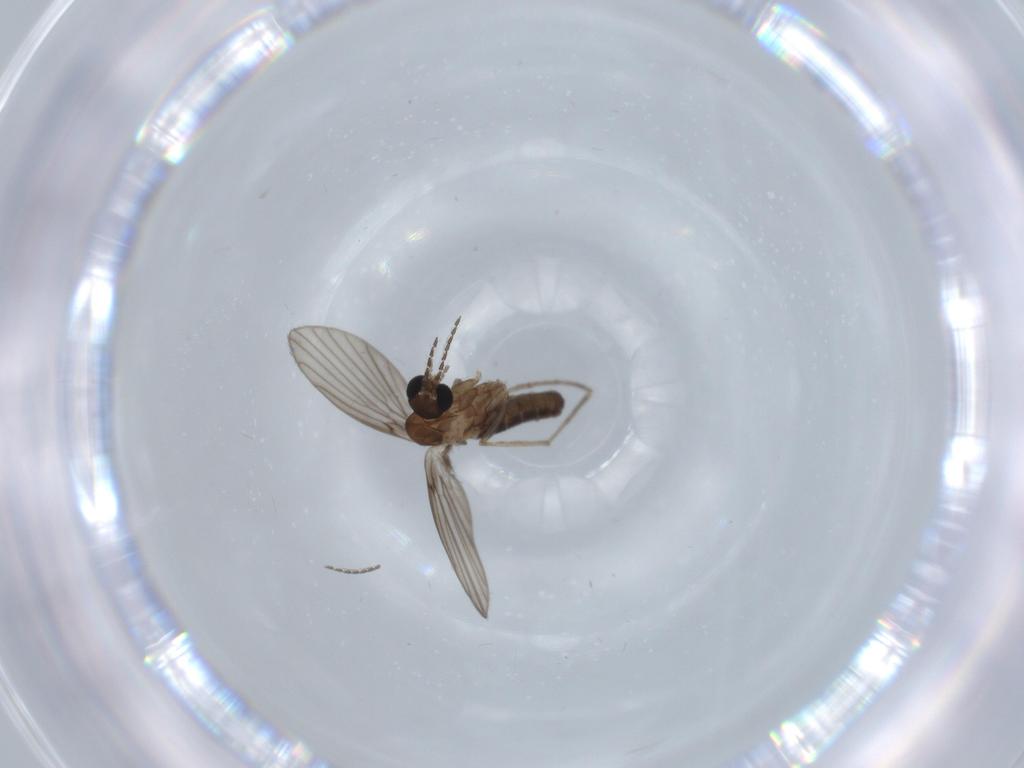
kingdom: Animalia
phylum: Arthropoda
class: Insecta
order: Diptera
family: Psychodidae
